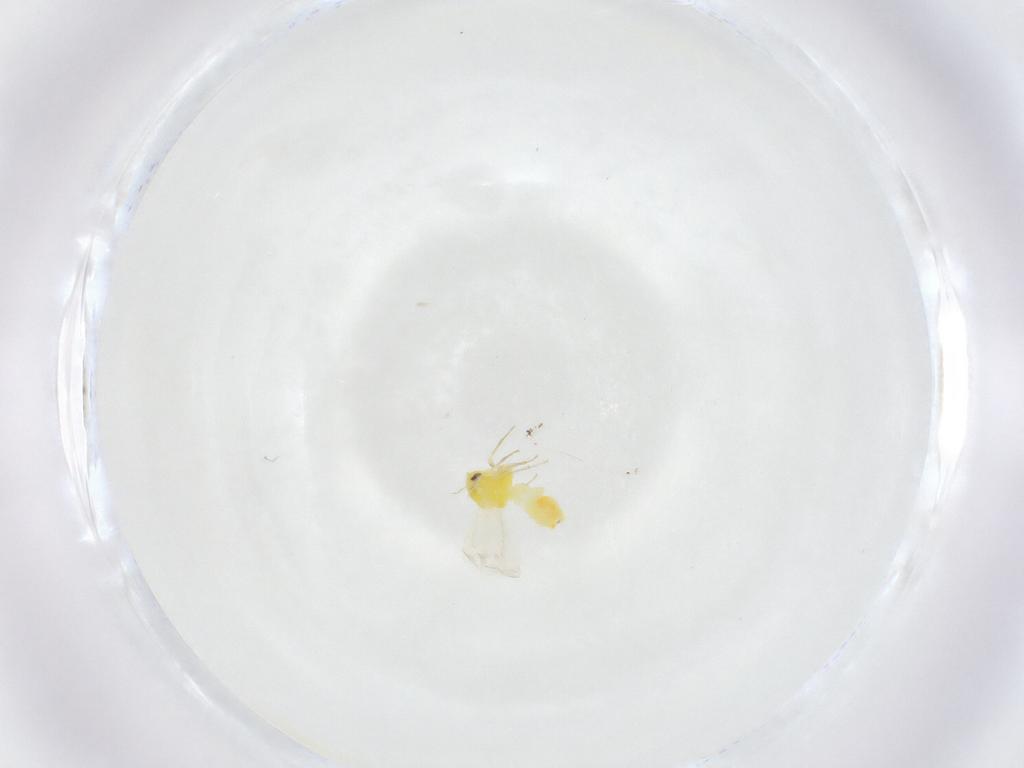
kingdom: Animalia
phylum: Arthropoda
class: Insecta
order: Hemiptera
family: Aleyrodidae
